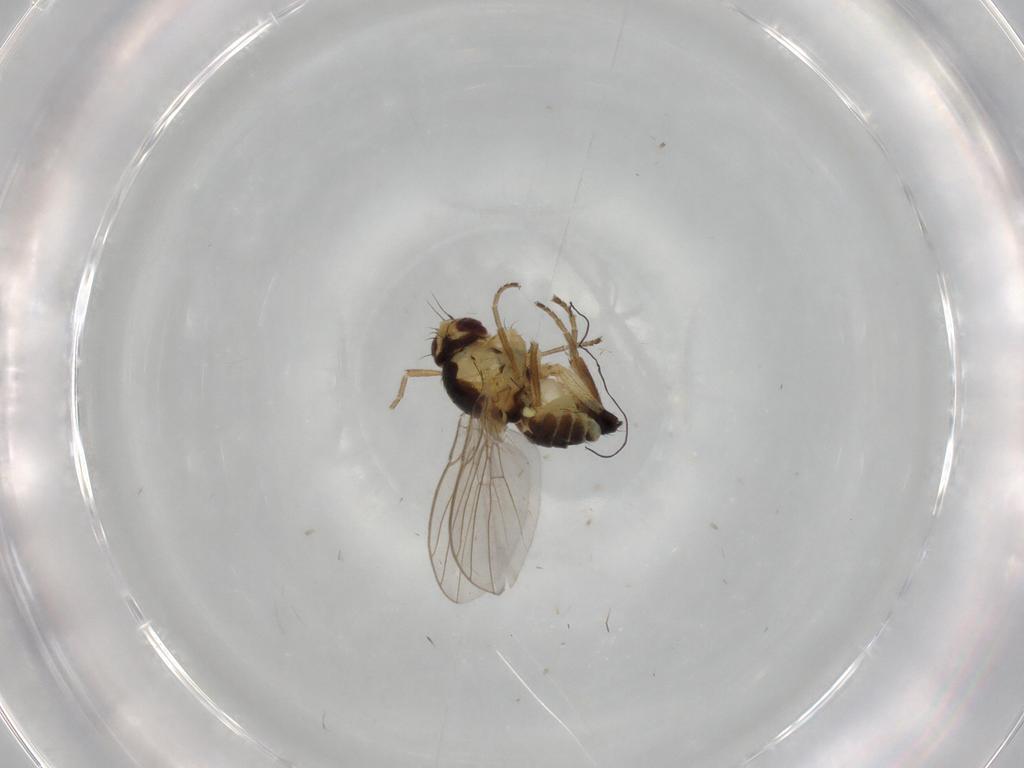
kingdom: Animalia
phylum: Arthropoda
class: Insecta
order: Diptera
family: Agromyzidae
